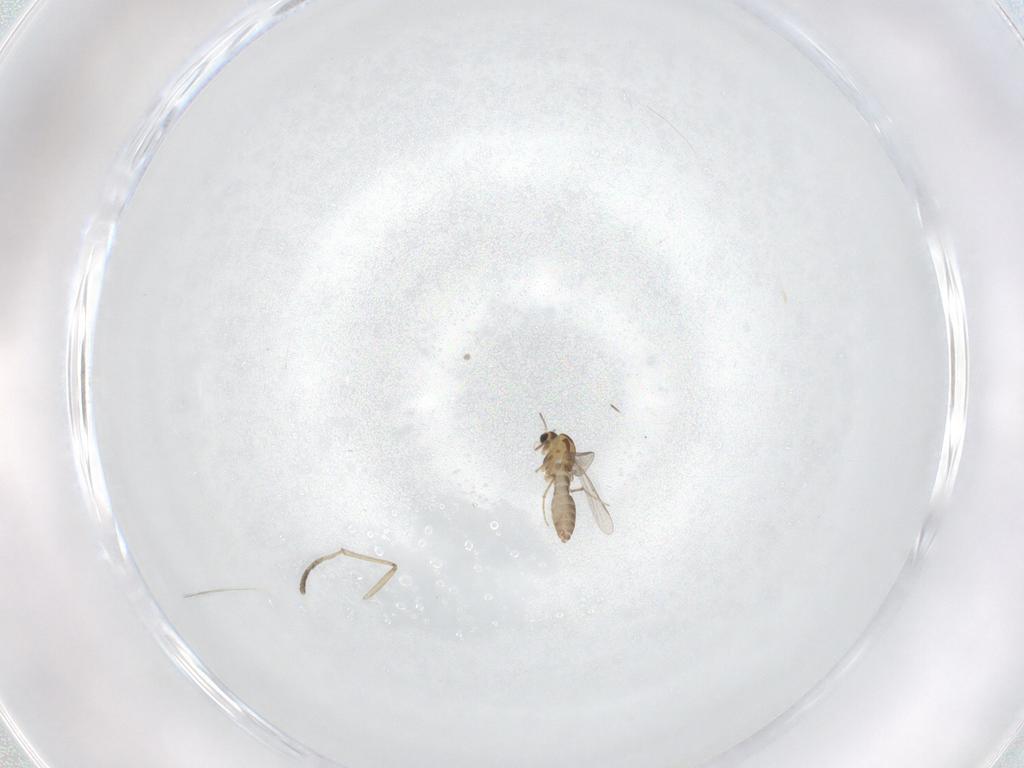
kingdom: Animalia
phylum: Arthropoda
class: Insecta
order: Diptera
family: Chironomidae
